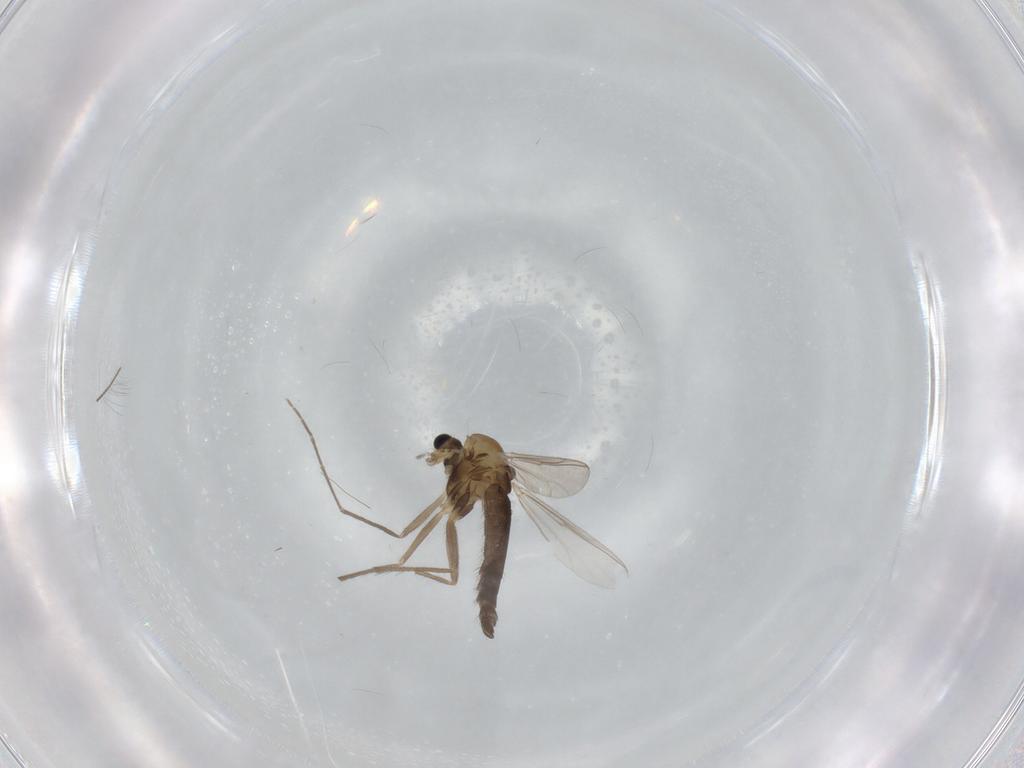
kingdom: Animalia
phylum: Arthropoda
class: Insecta
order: Diptera
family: Chironomidae
